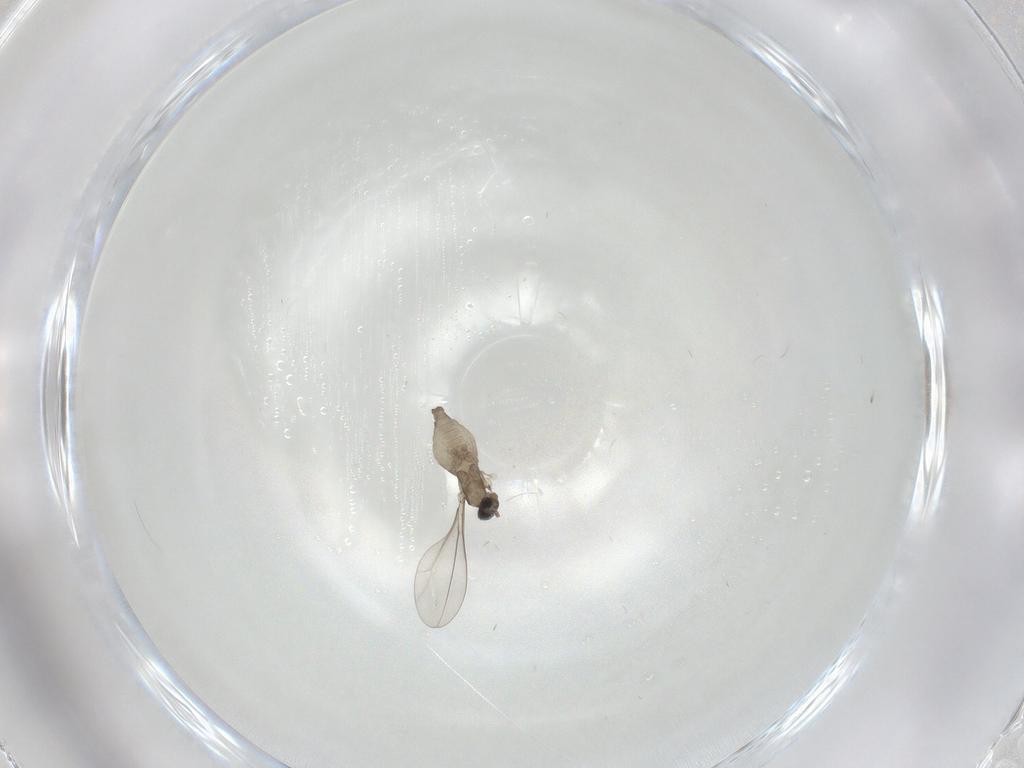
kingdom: Animalia
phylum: Arthropoda
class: Insecta
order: Diptera
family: Cecidomyiidae
